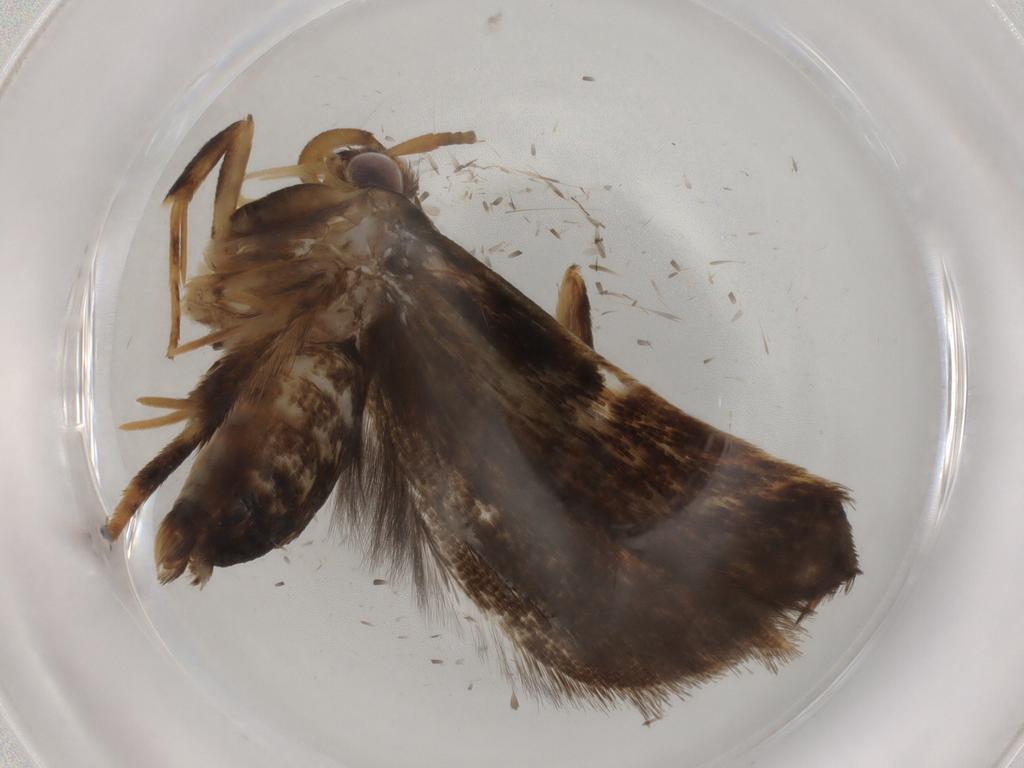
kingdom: Animalia
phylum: Arthropoda
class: Insecta
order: Lepidoptera
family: Gelechiidae
